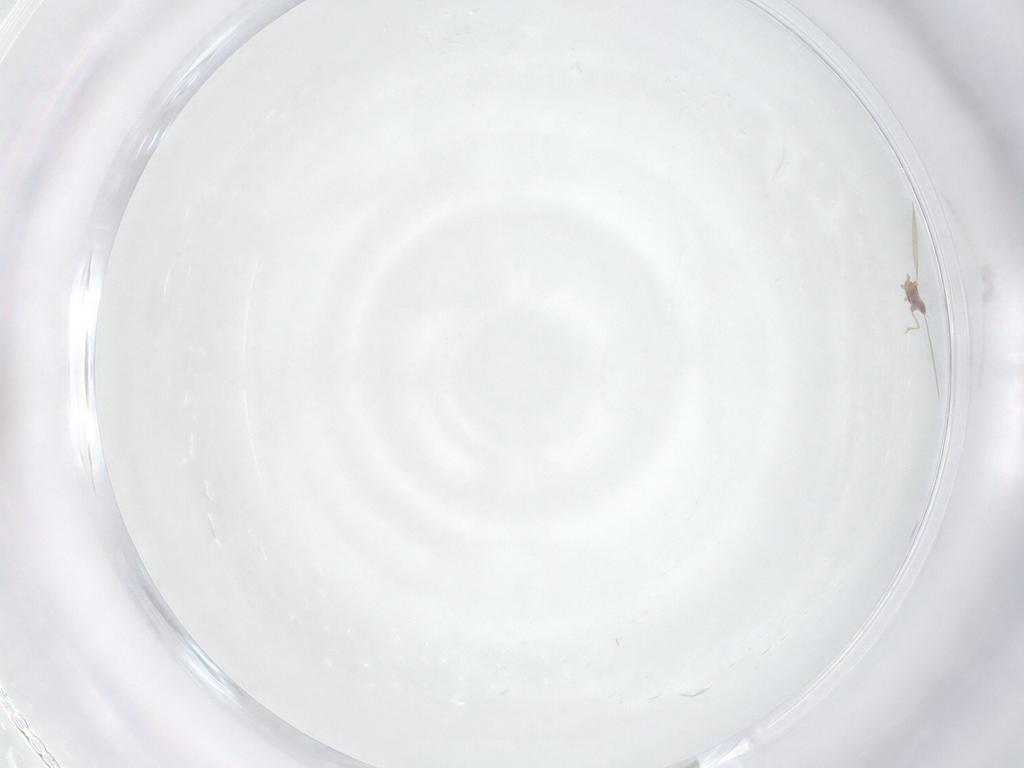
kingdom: Animalia
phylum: Arthropoda
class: Insecta
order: Hemiptera
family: Pseudococcidae
